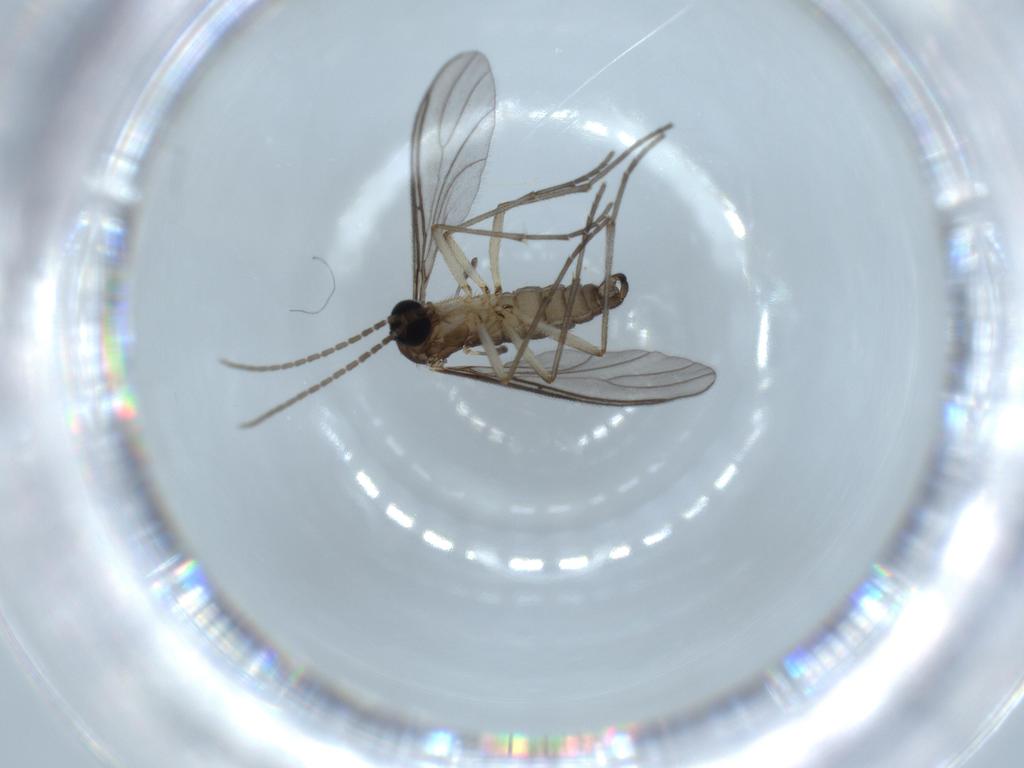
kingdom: Animalia
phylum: Arthropoda
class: Insecta
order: Diptera
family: Sciaridae
